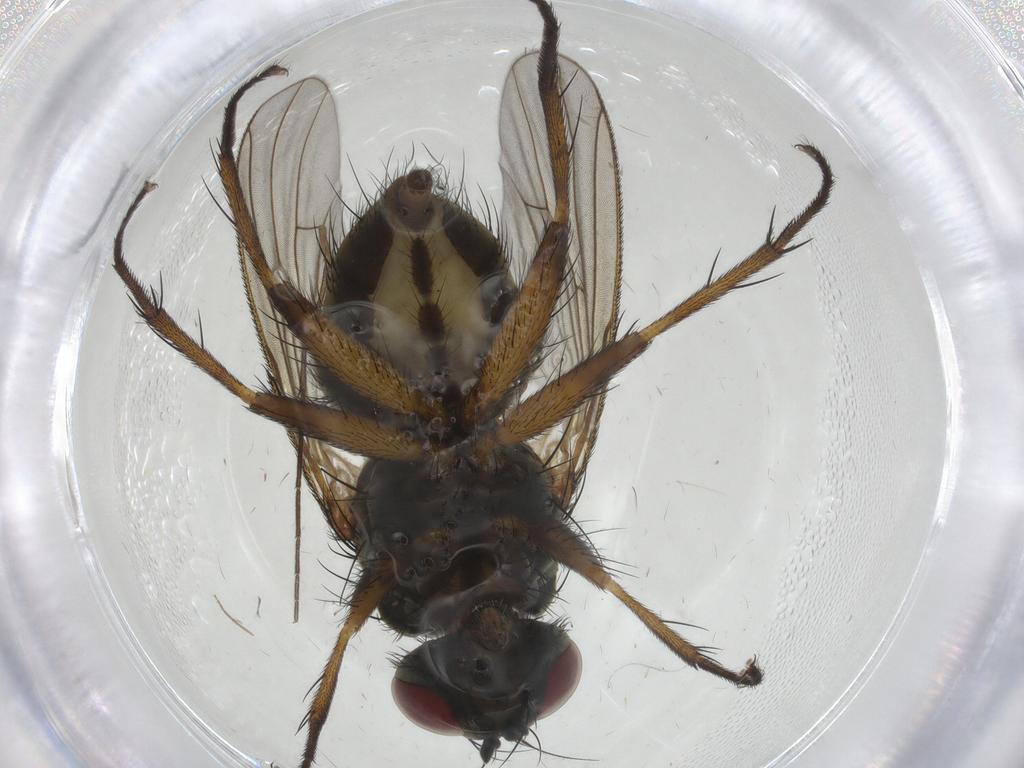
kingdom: Animalia
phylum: Arthropoda
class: Insecta
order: Diptera
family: Muscidae
